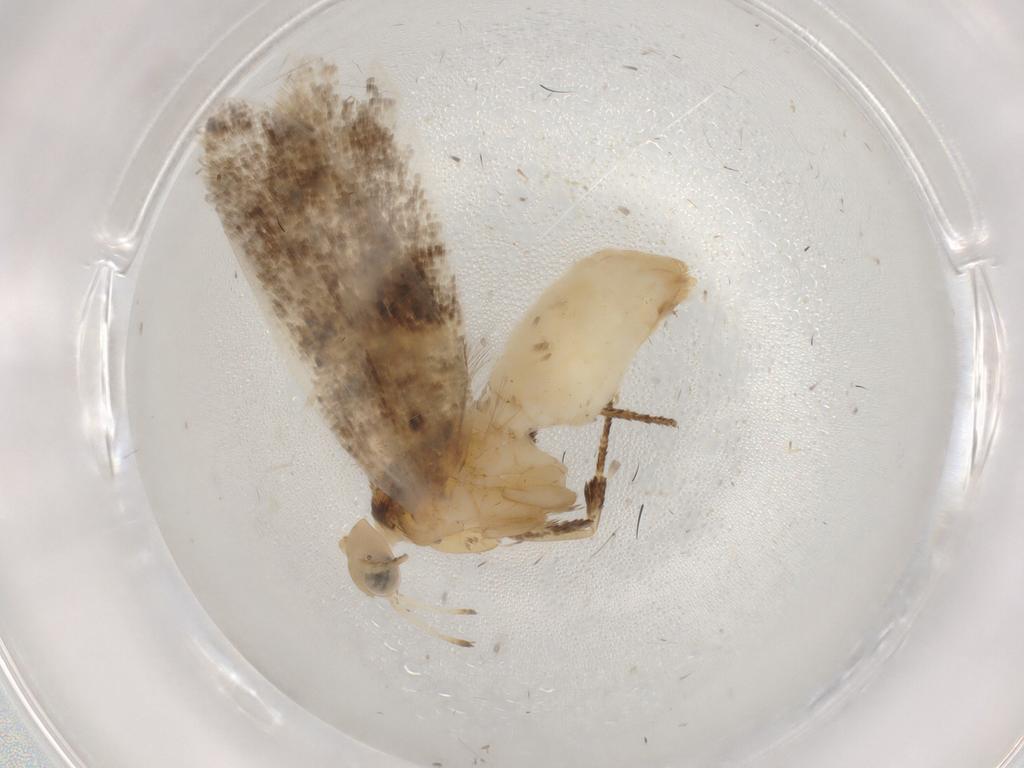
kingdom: Animalia
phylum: Arthropoda
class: Insecta
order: Lepidoptera
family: Ypsolophidae
